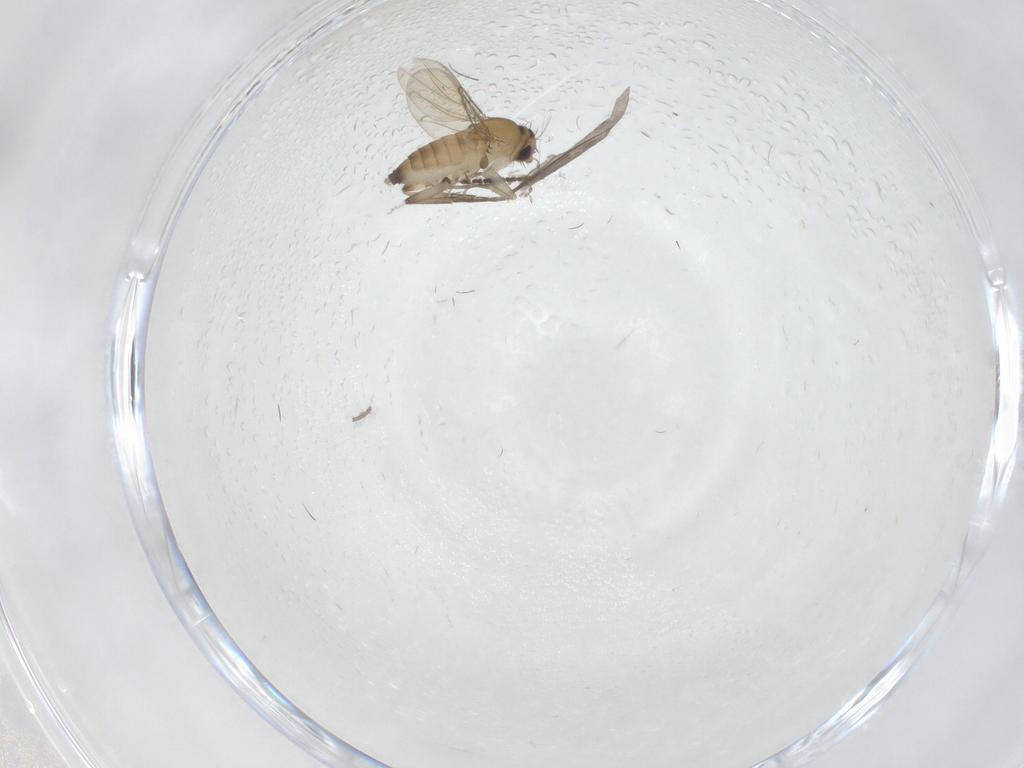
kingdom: Animalia
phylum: Arthropoda
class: Insecta
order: Diptera
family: Sciaridae
